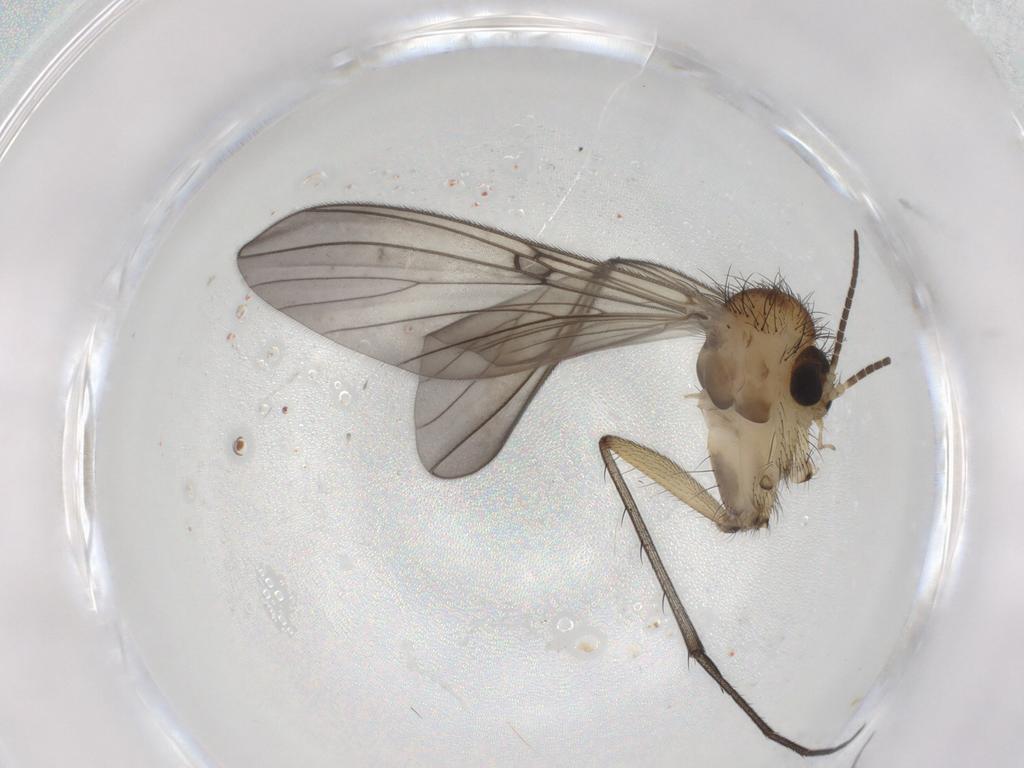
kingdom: Animalia
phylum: Arthropoda
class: Insecta
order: Diptera
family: Mycetophilidae
